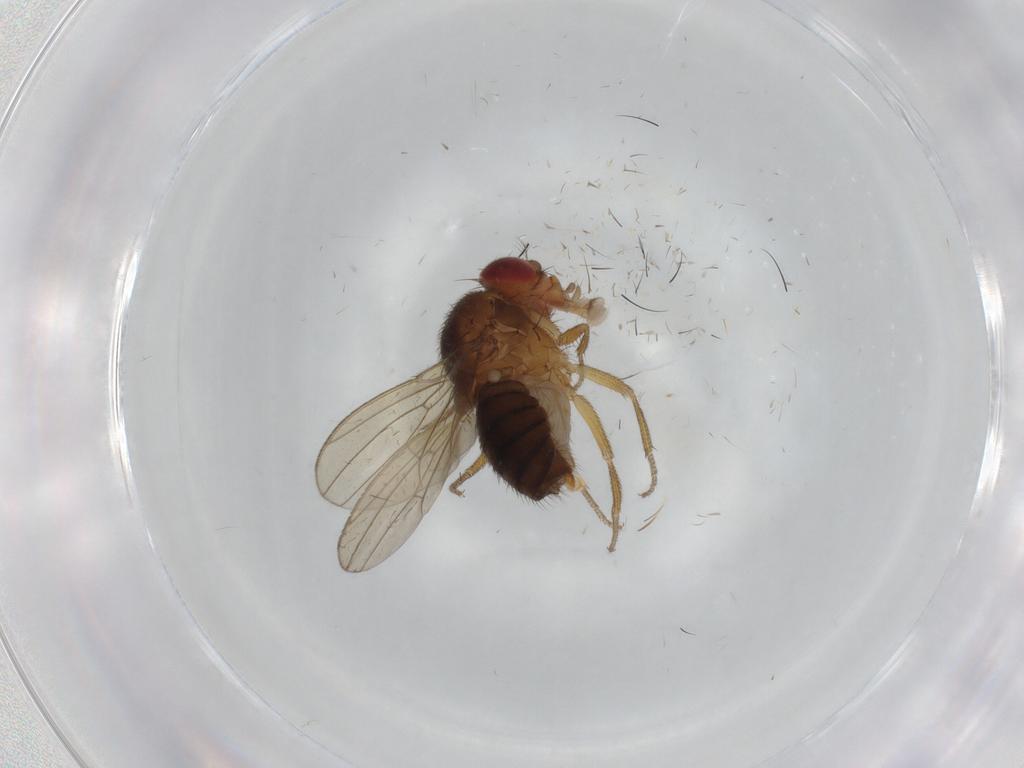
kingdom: Animalia
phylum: Arthropoda
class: Insecta
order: Diptera
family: Drosophilidae
